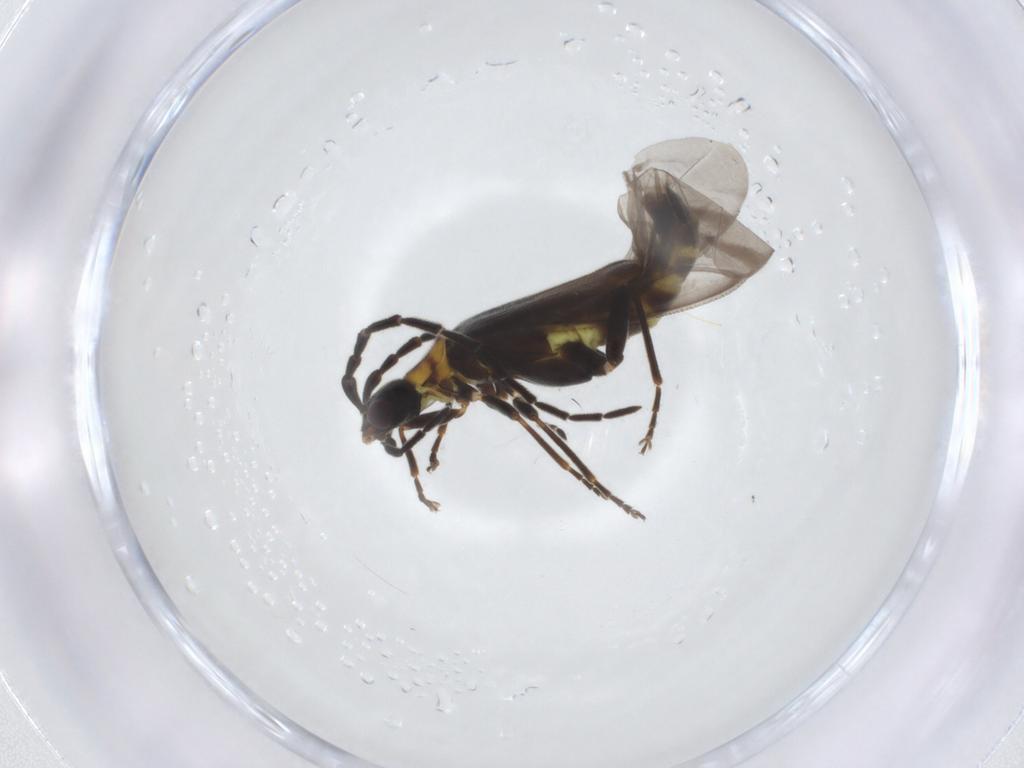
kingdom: Animalia
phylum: Arthropoda
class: Insecta
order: Coleoptera
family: Cantharidae
